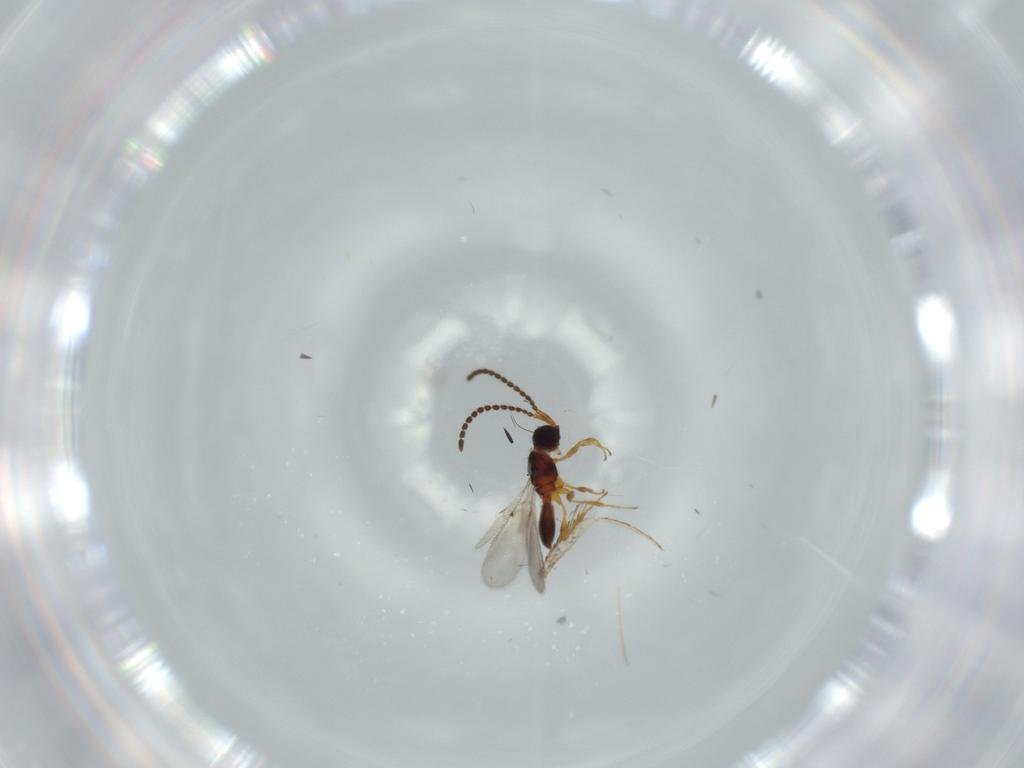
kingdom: Animalia
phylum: Arthropoda
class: Insecta
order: Hymenoptera
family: Diapriidae
